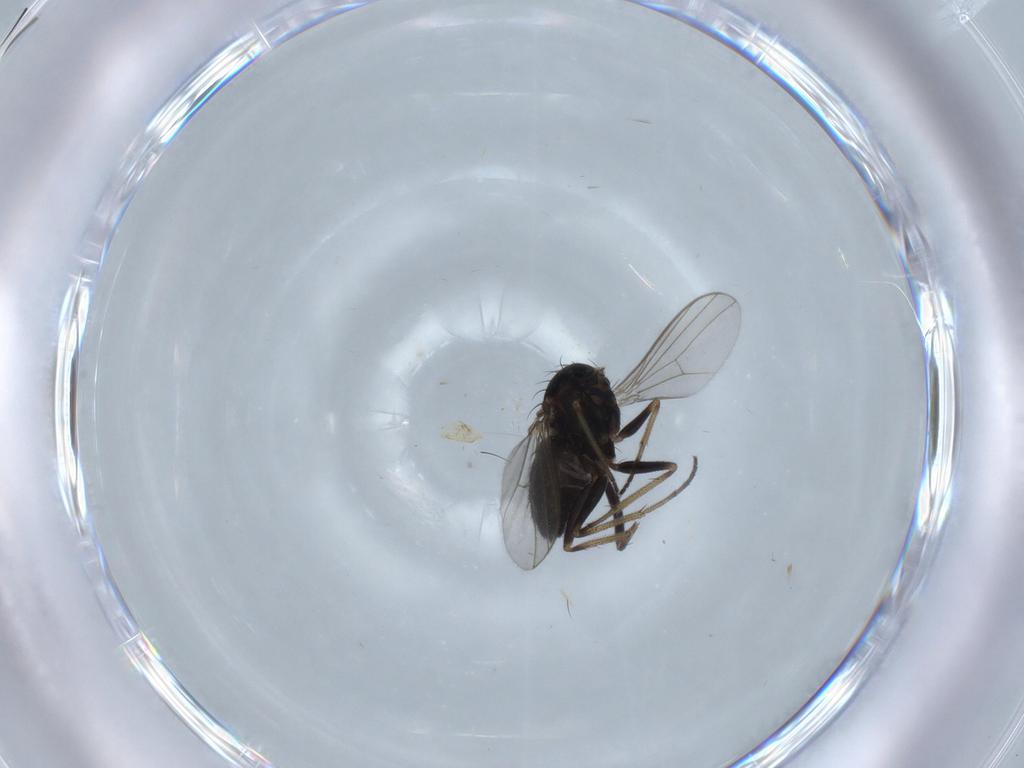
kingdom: Animalia
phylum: Arthropoda
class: Insecta
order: Diptera
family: Dolichopodidae
